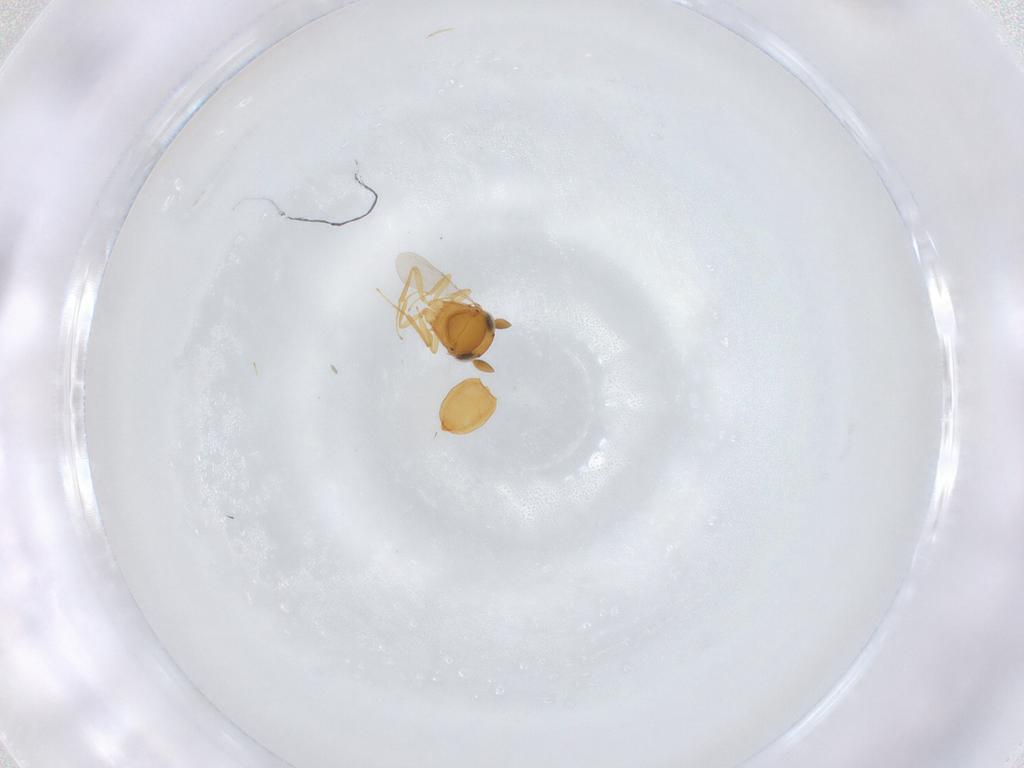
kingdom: Animalia
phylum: Arthropoda
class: Insecta
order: Hymenoptera
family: Scelionidae
